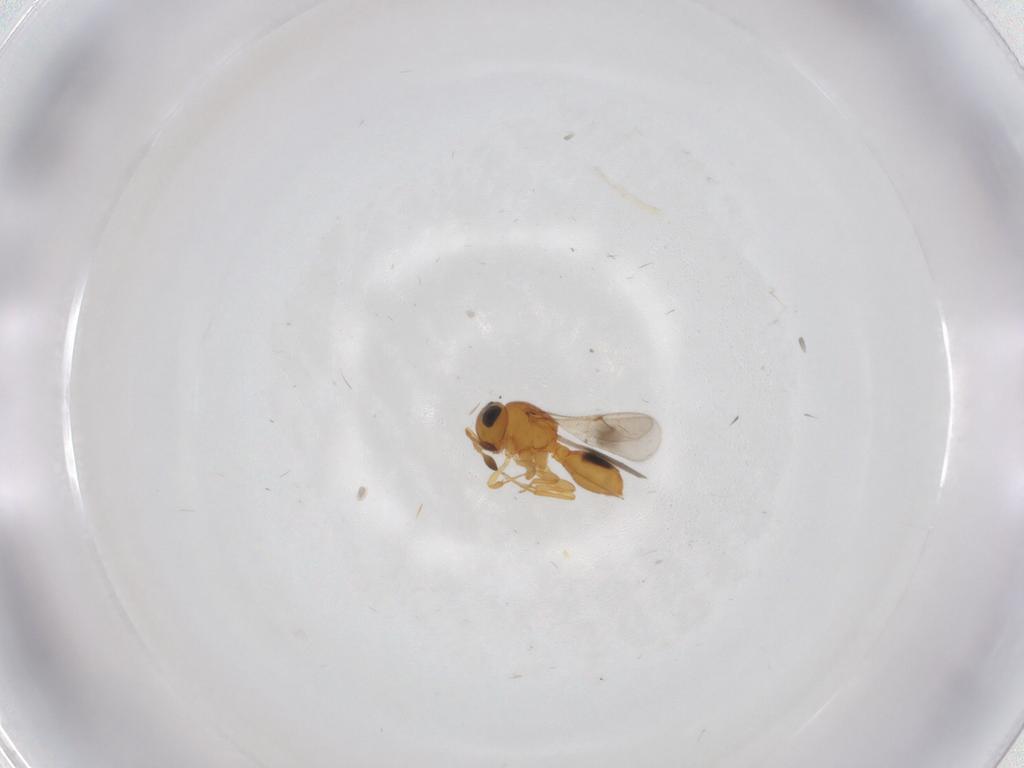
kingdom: Animalia
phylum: Arthropoda
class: Insecta
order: Hymenoptera
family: Scelionidae
